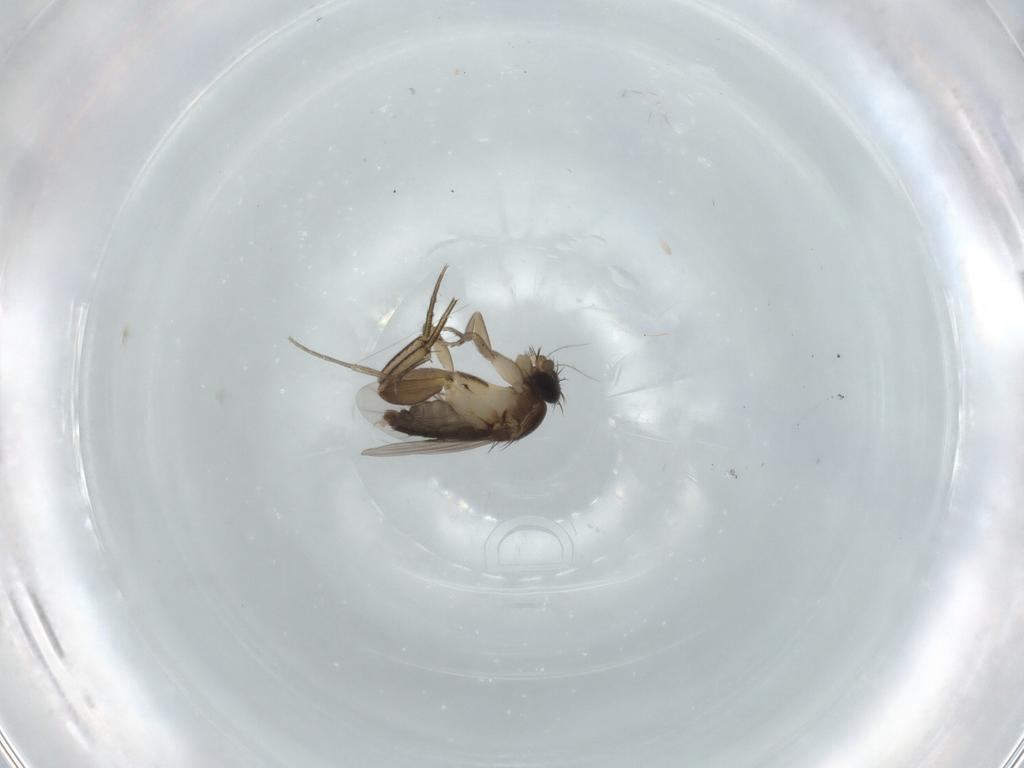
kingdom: Animalia
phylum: Arthropoda
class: Insecta
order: Diptera
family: Phoridae
